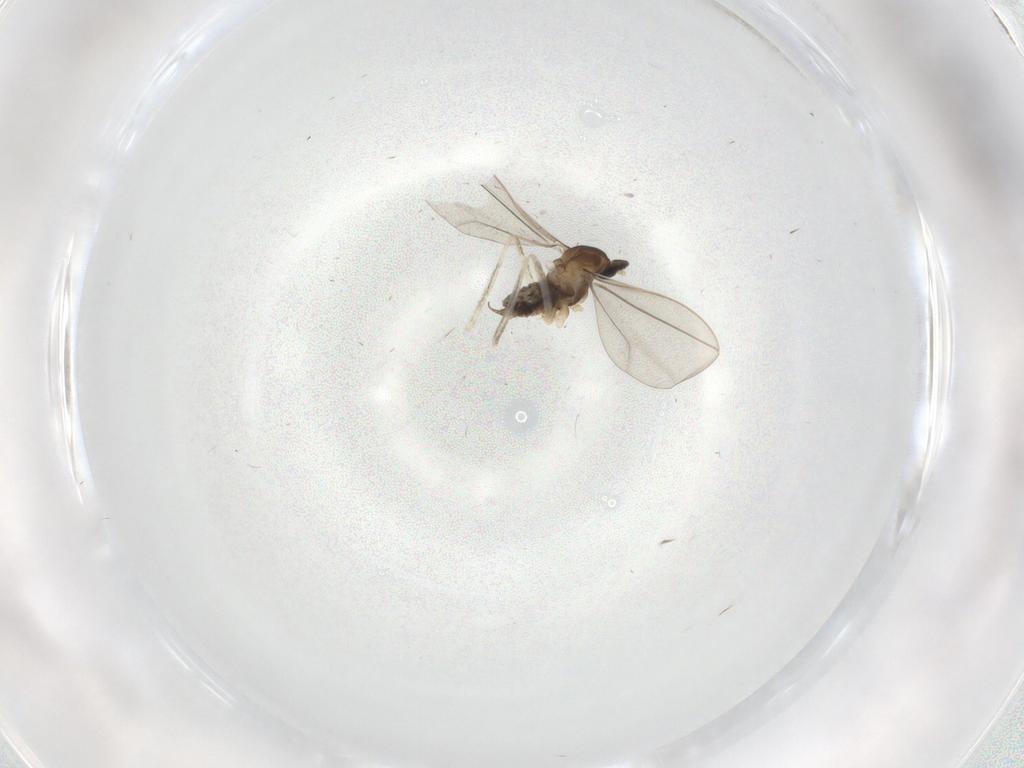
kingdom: Animalia
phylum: Arthropoda
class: Insecta
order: Diptera
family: Cecidomyiidae
